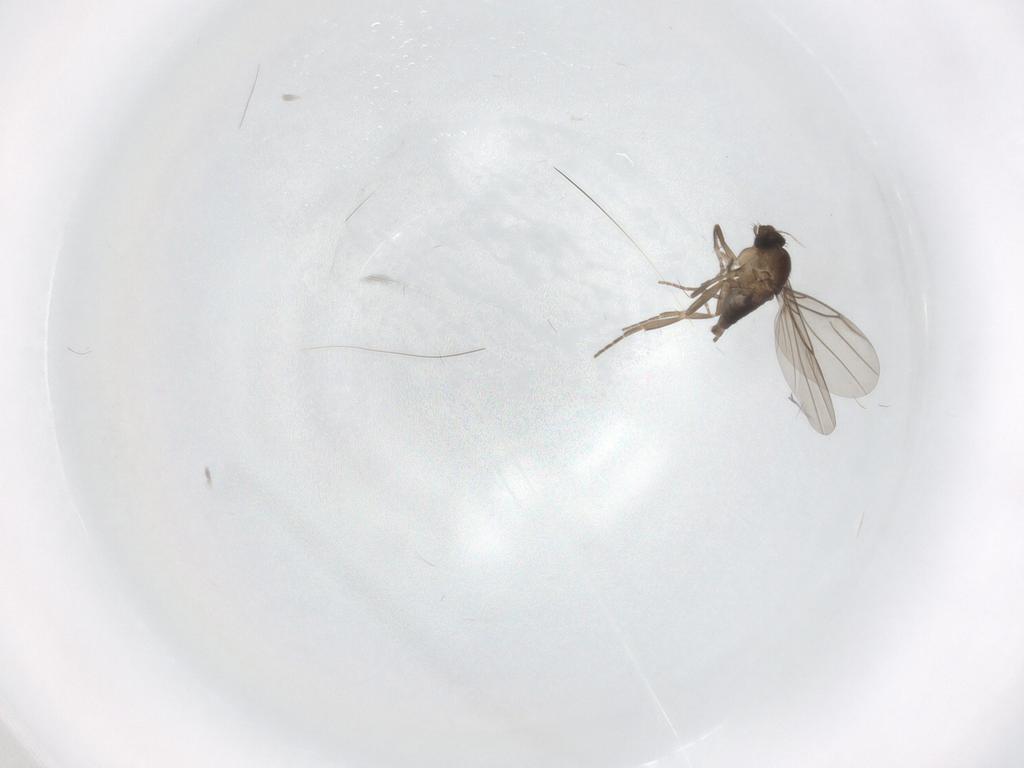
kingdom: Animalia
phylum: Arthropoda
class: Insecta
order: Diptera
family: Phoridae
